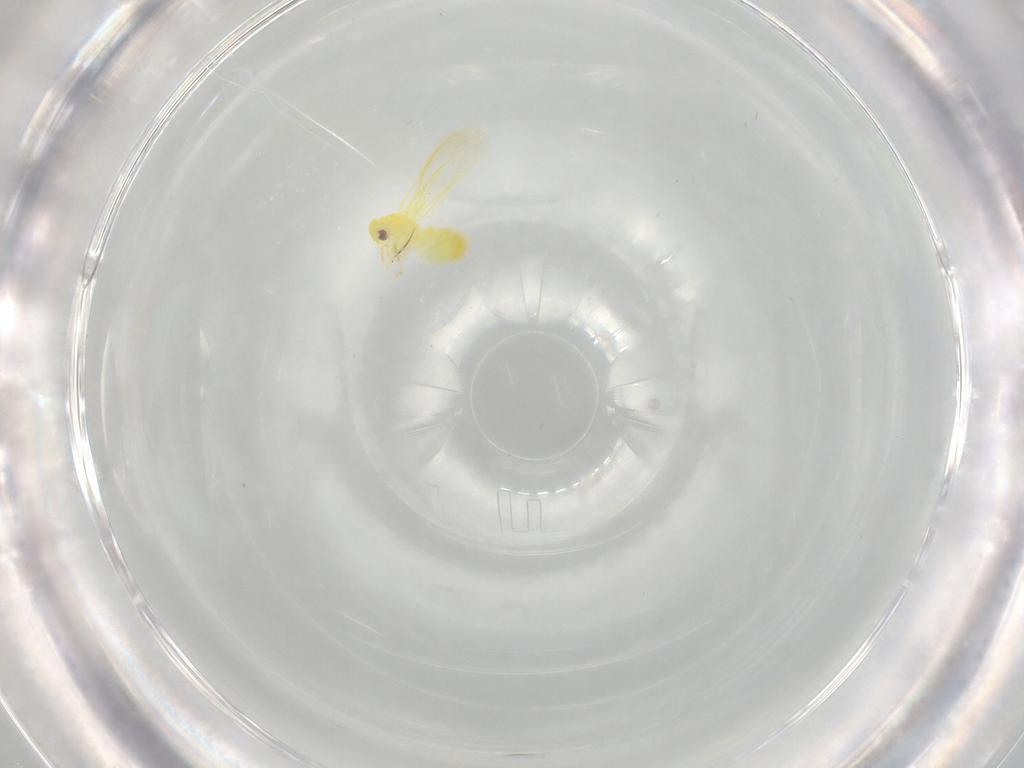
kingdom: Animalia
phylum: Arthropoda
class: Insecta
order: Hemiptera
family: Aleyrodidae
